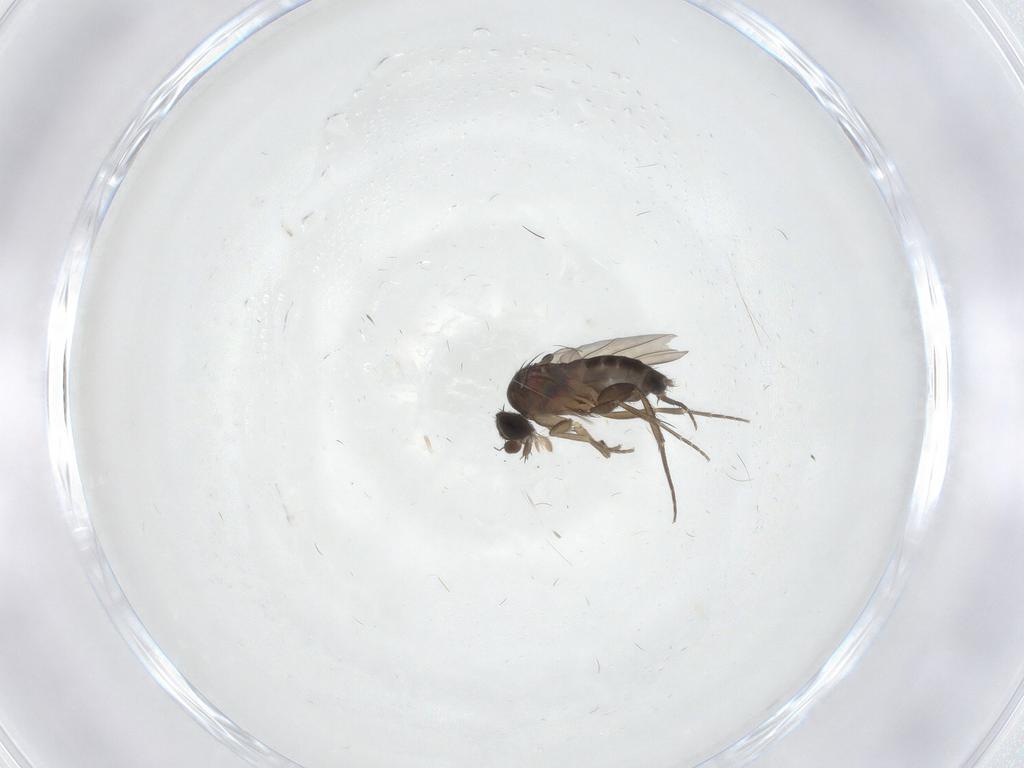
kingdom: Animalia
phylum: Arthropoda
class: Insecta
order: Diptera
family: Phoridae
